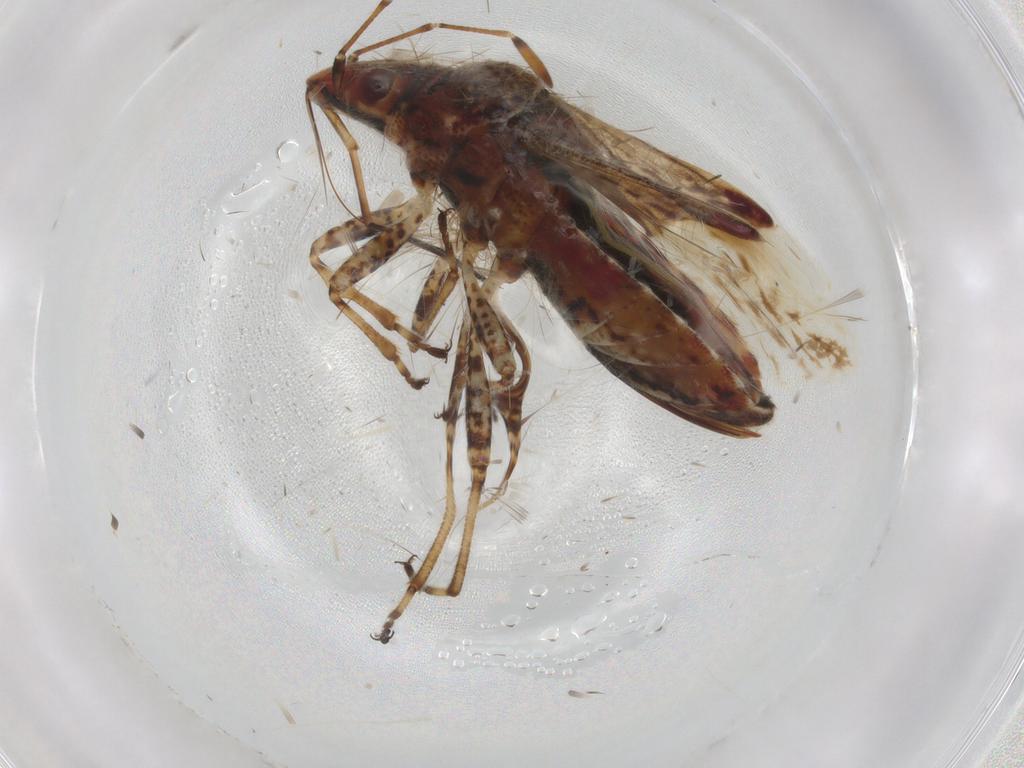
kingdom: Animalia
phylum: Arthropoda
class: Insecta
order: Hemiptera
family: Lygaeidae
